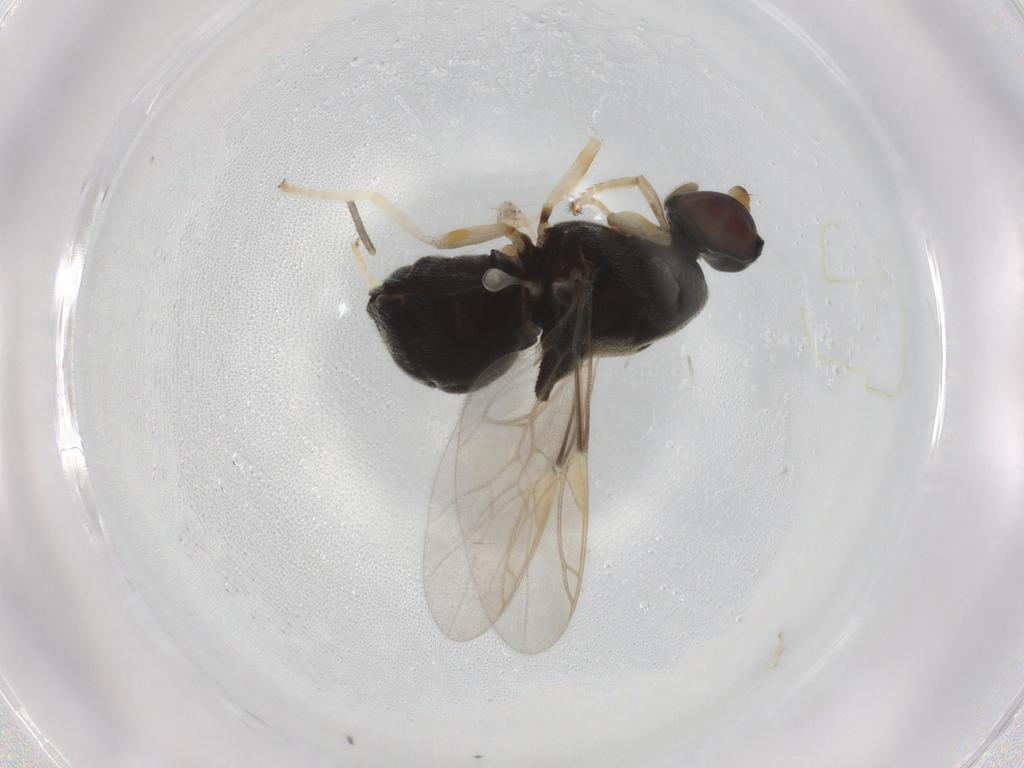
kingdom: Animalia
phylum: Arthropoda
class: Insecta
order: Diptera
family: Stratiomyidae
